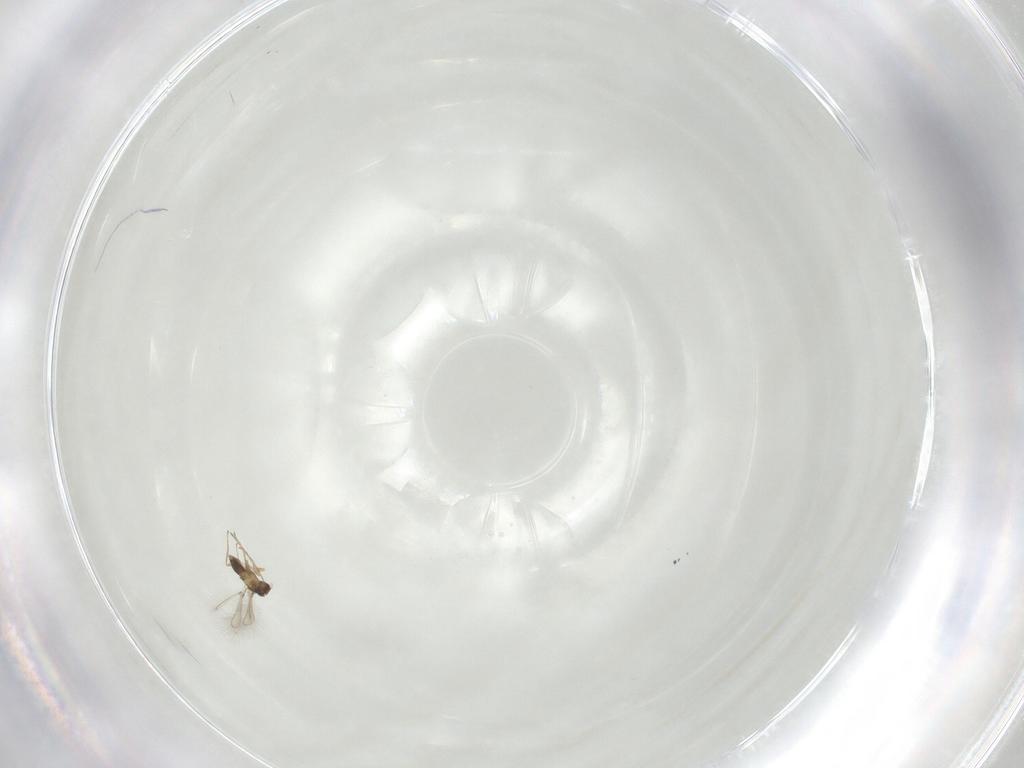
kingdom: Animalia
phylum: Arthropoda
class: Insecta
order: Hymenoptera
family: Mymaridae
